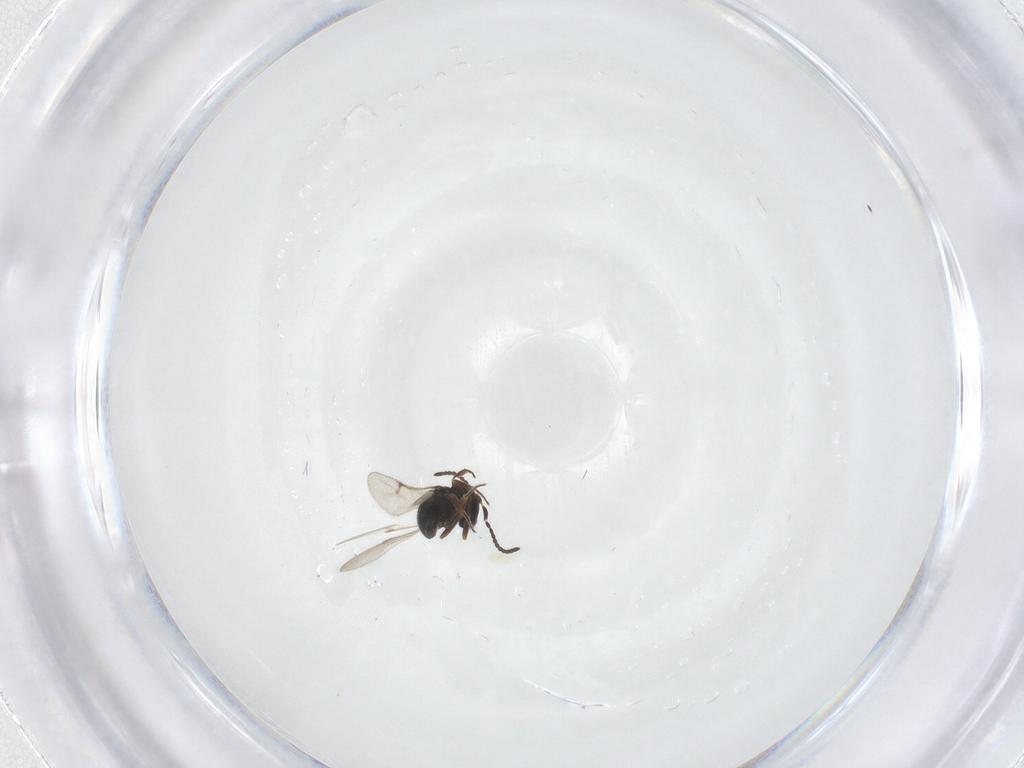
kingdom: Animalia
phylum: Arthropoda
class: Insecta
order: Hymenoptera
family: Scelionidae
